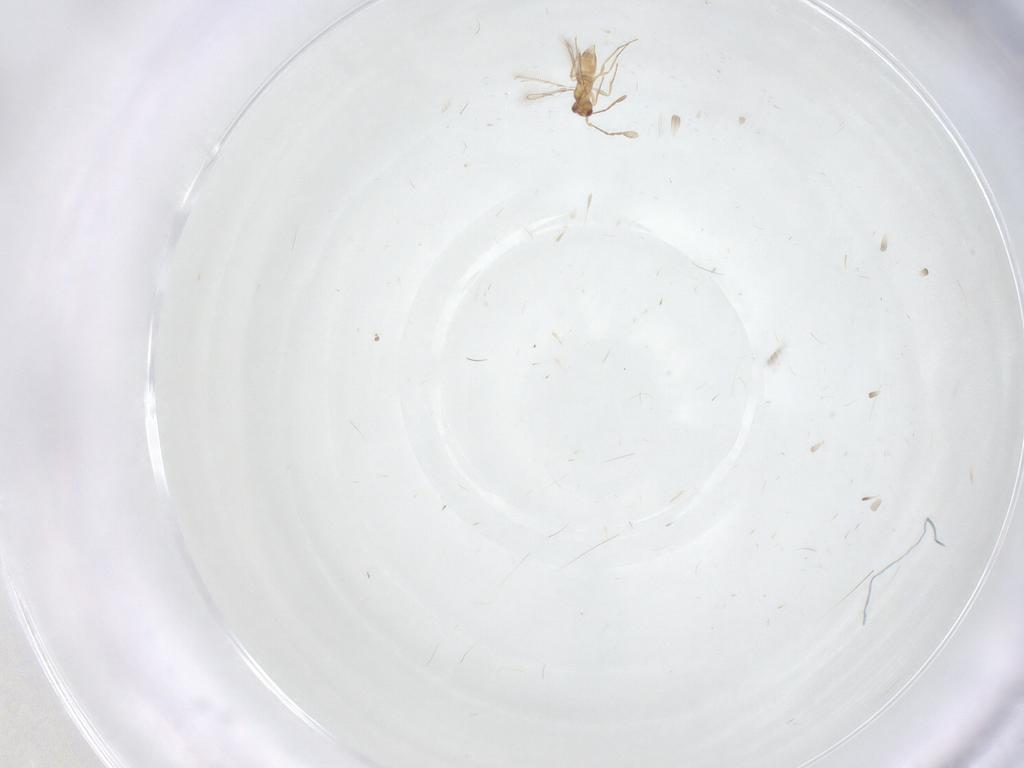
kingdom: Animalia
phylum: Arthropoda
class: Insecta
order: Hymenoptera
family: Mymaridae
